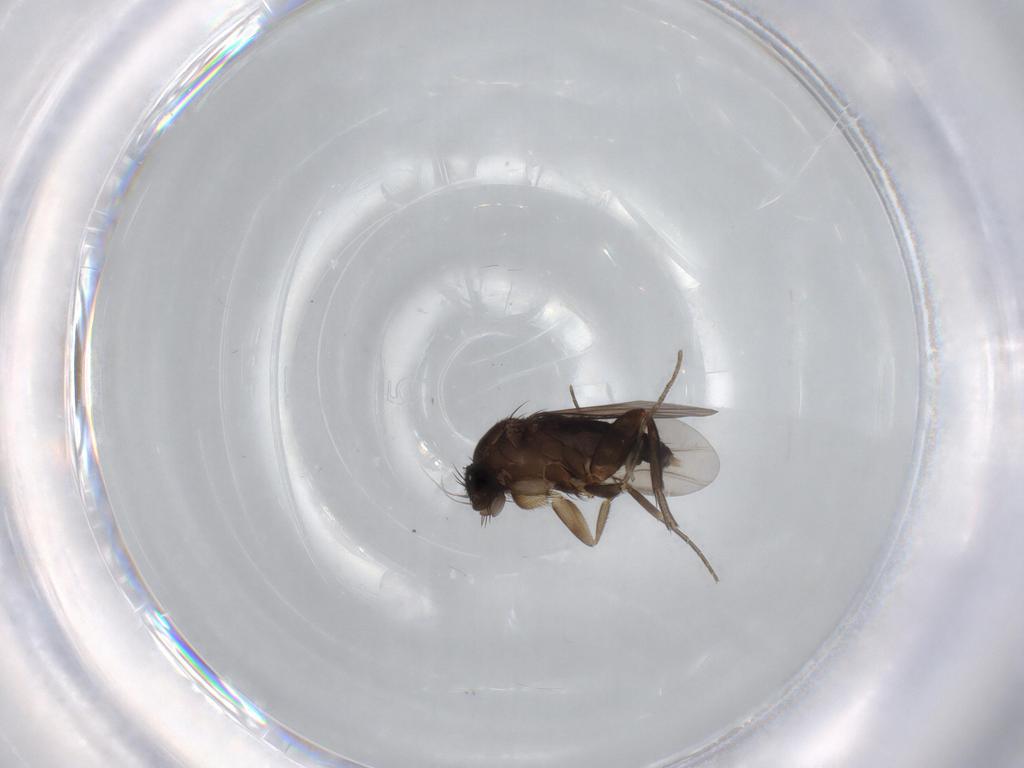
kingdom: Animalia
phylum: Arthropoda
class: Insecta
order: Diptera
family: Phoridae
